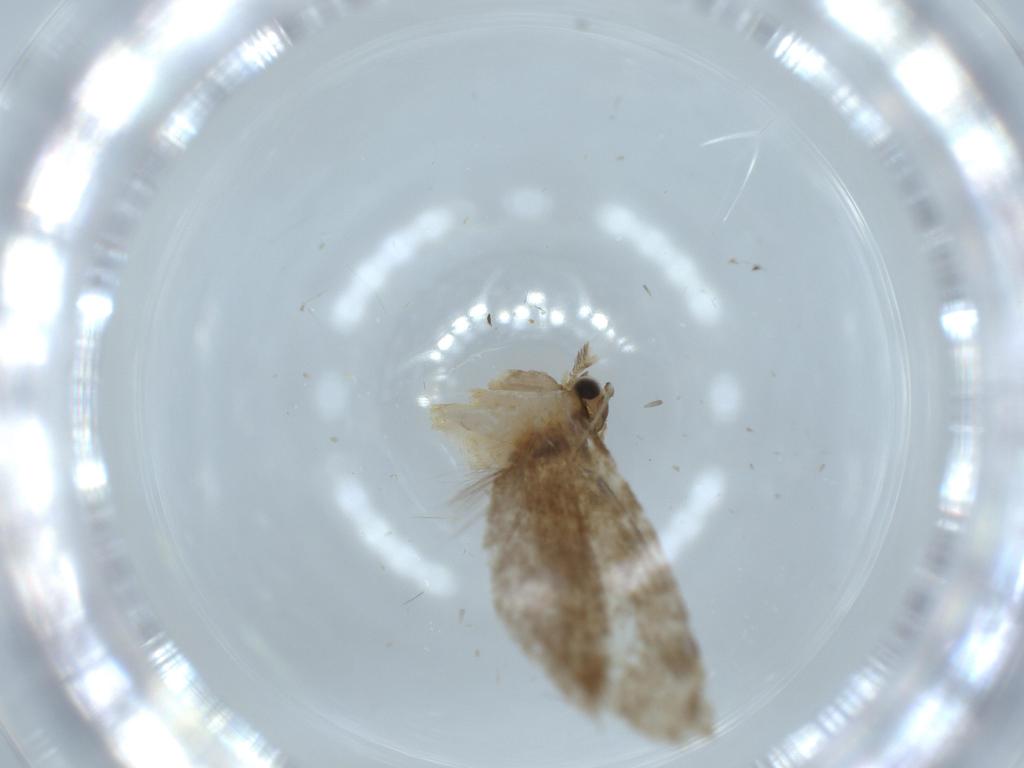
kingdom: Animalia
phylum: Arthropoda
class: Insecta
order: Lepidoptera
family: Tineidae
